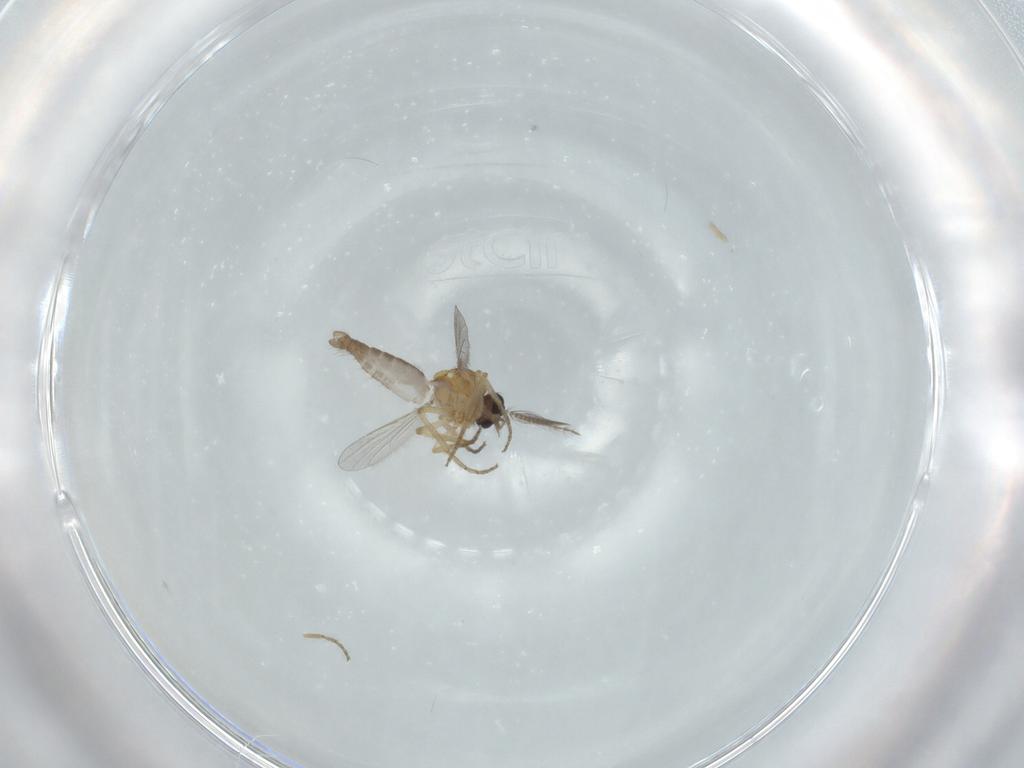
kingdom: Animalia
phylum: Arthropoda
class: Insecta
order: Diptera
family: Ceratopogonidae
